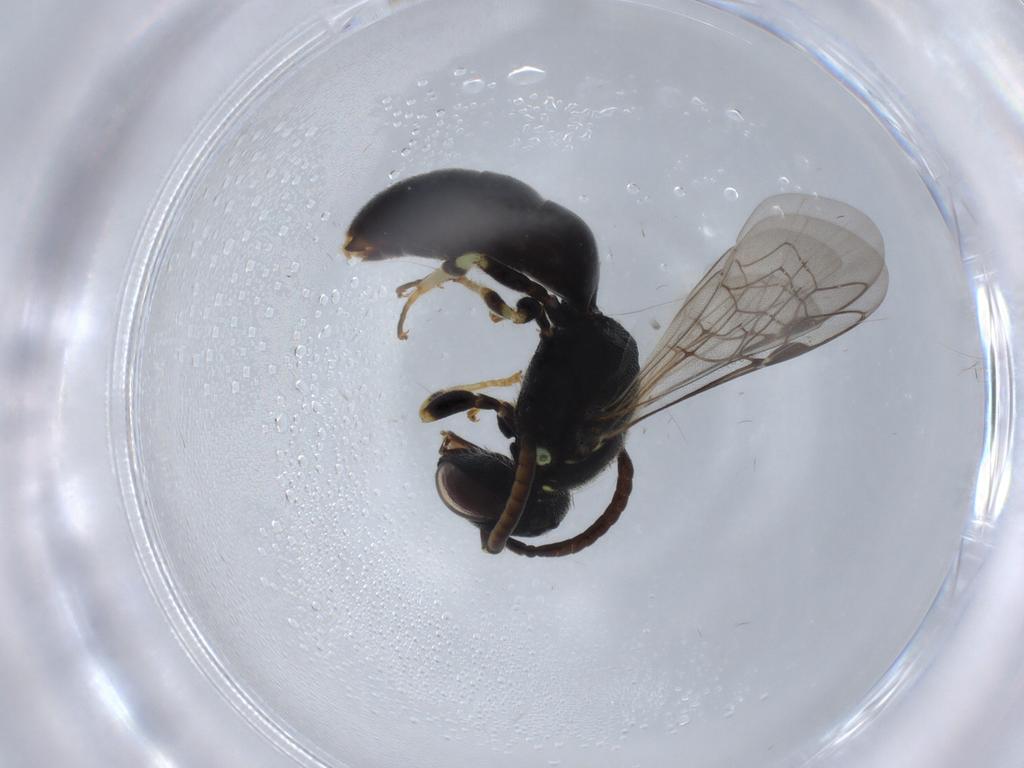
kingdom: Animalia
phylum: Arthropoda
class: Insecta
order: Hymenoptera
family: Colletidae
